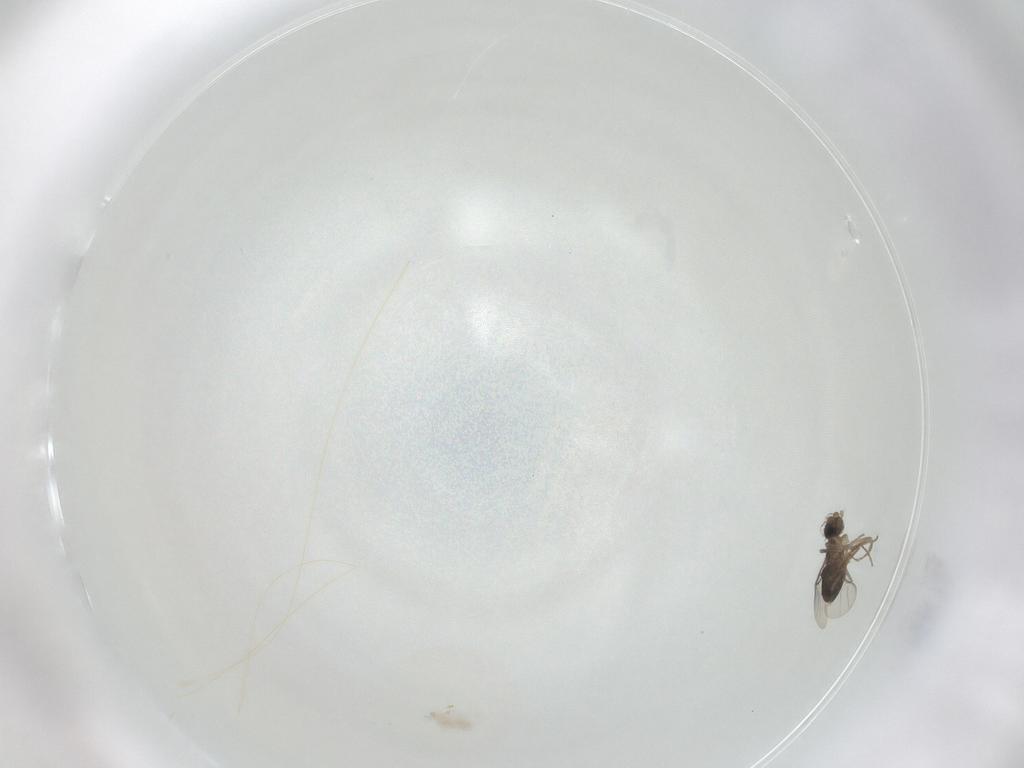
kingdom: Animalia
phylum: Arthropoda
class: Insecta
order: Diptera
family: Cecidomyiidae
